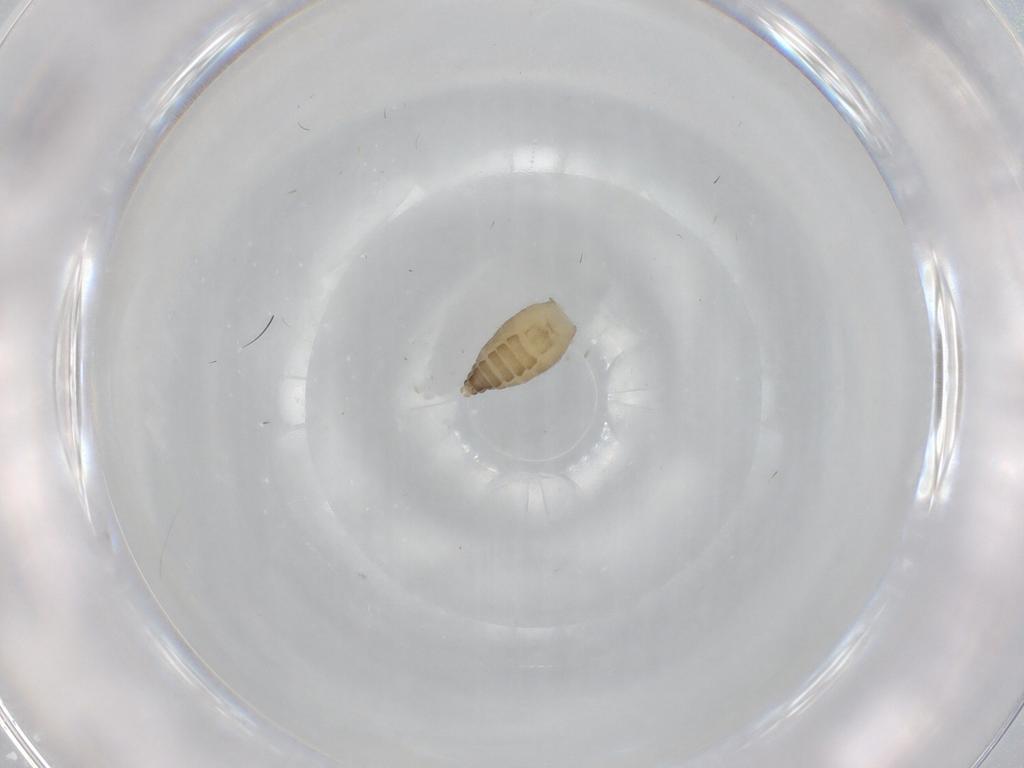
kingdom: Animalia
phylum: Arthropoda
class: Insecta
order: Diptera
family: Ceratopogonidae
